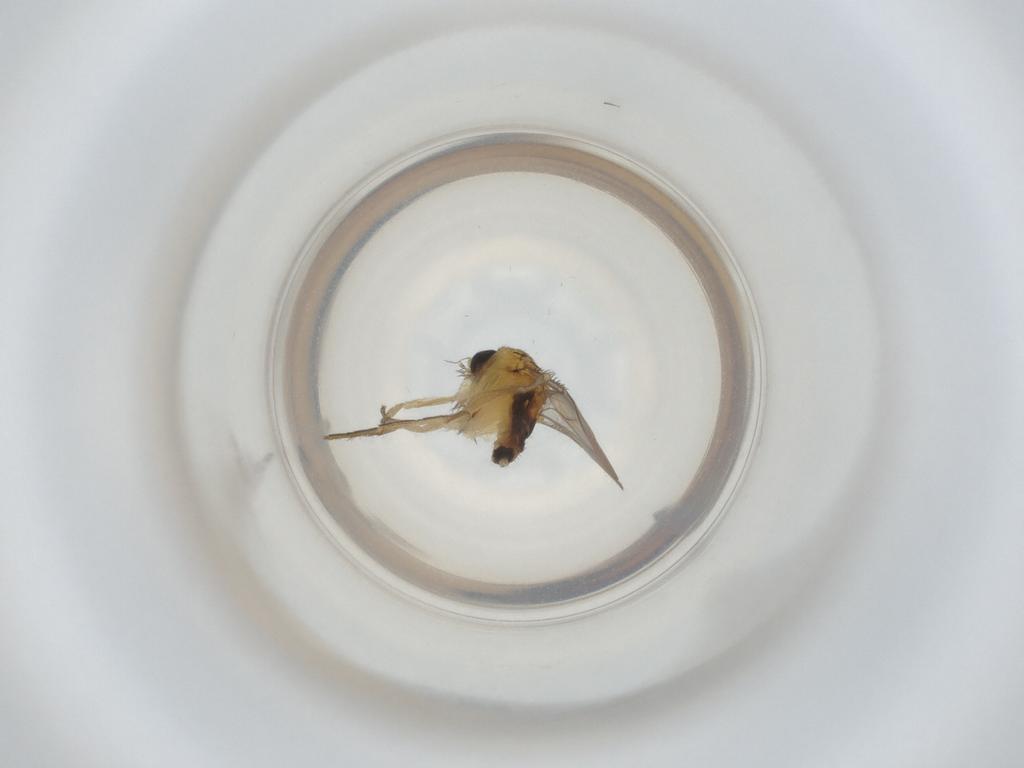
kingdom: Animalia
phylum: Arthropoda
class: Insecta
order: Diptera
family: Phoridae
